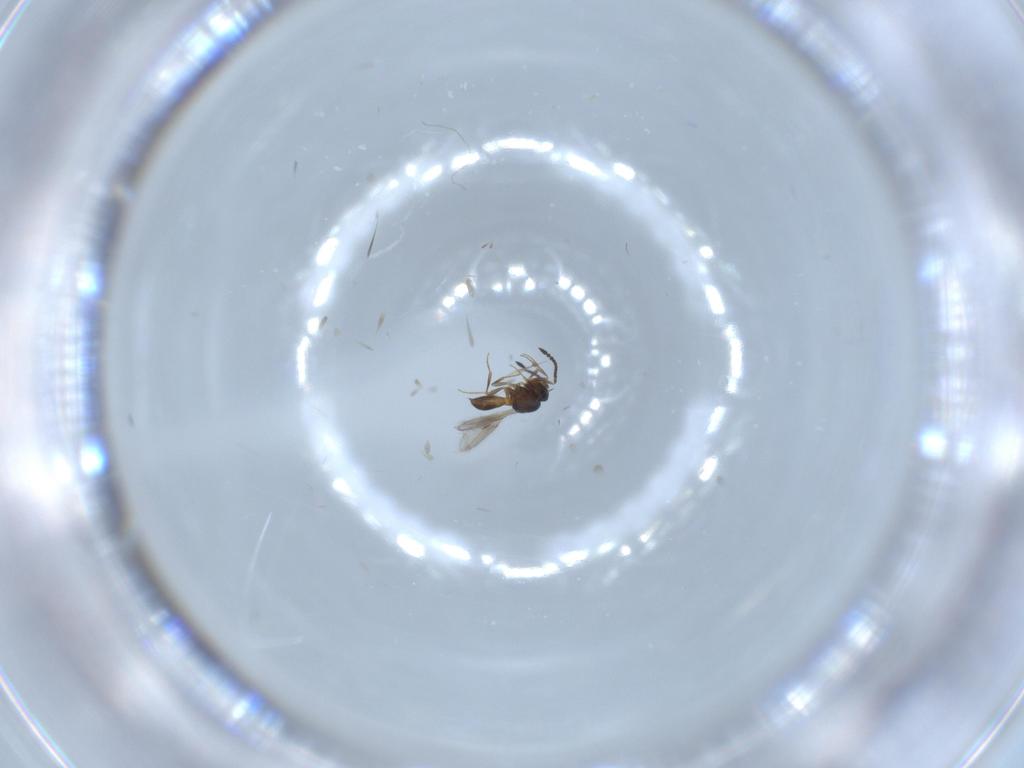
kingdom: Animalia
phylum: Arthropoda
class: Insecta
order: Hymenoptera
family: Scelionidae
